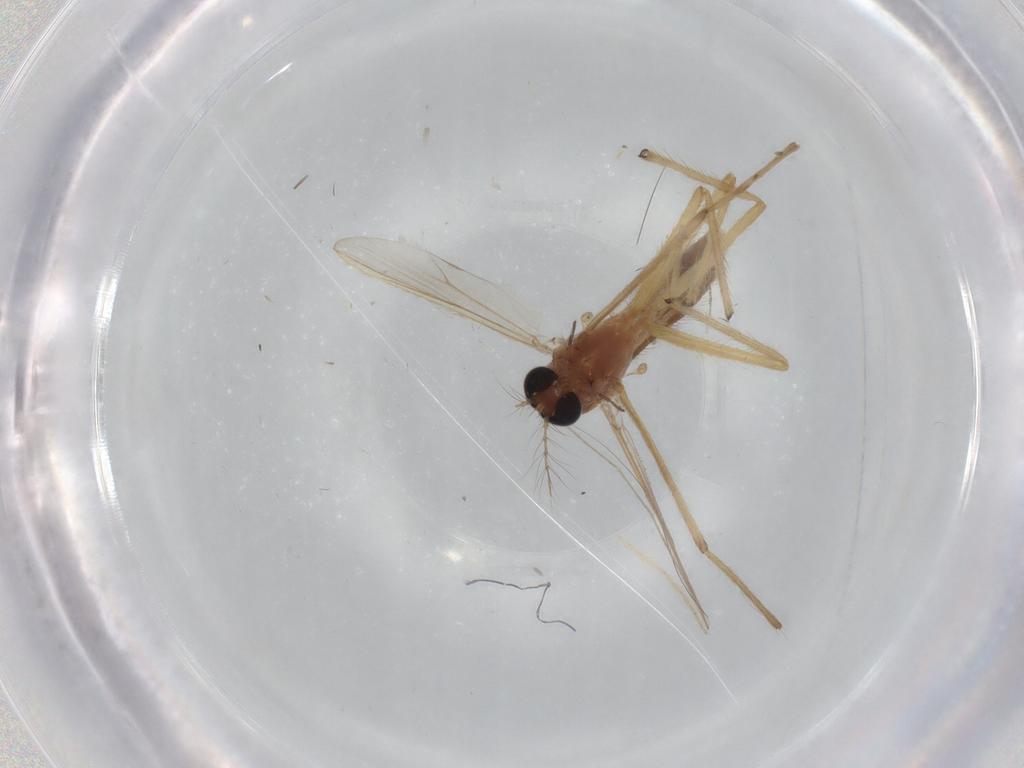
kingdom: Animalia
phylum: Arthropoda
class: Insecta
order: Diptera
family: Chironomidae
